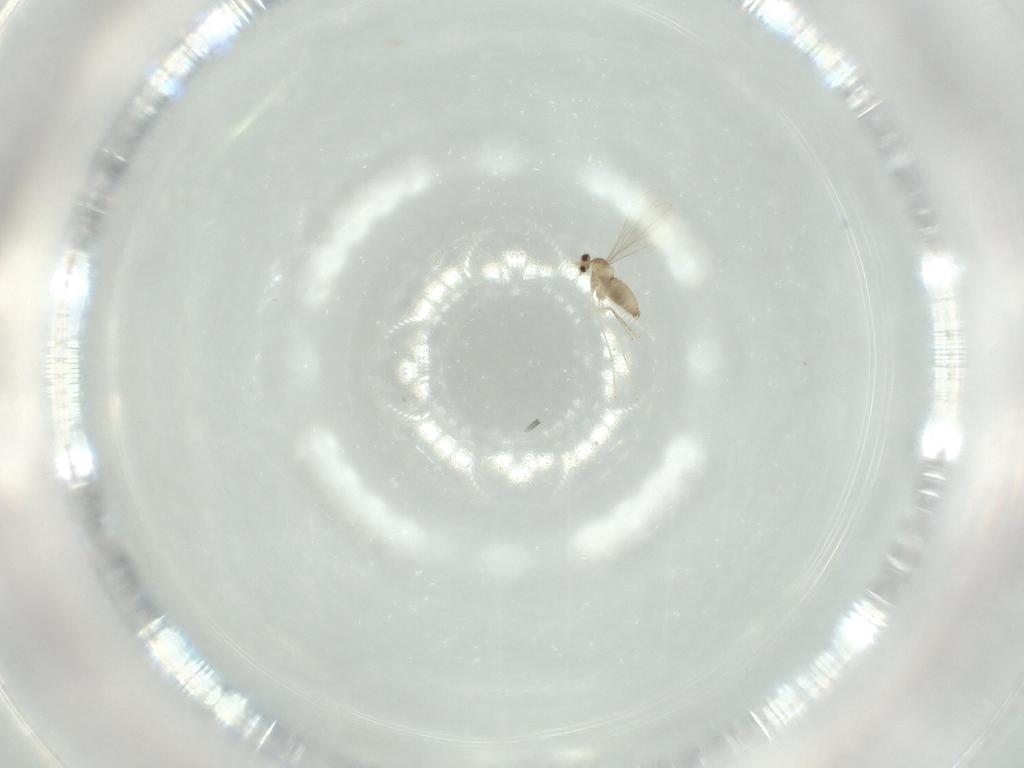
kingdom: Animalia
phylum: Arthropoda
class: Insecta
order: Diptera
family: Cecidomyiidae
